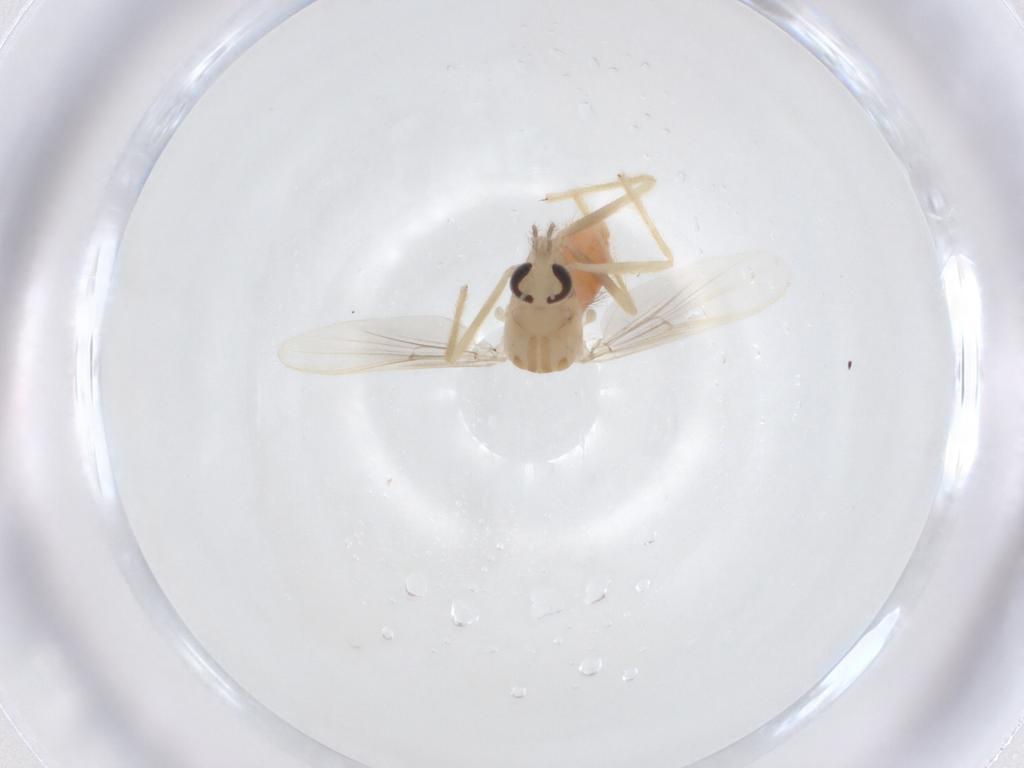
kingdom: Animalia
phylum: Arthropoda
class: Insecta
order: Diptera
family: Chironomidae
